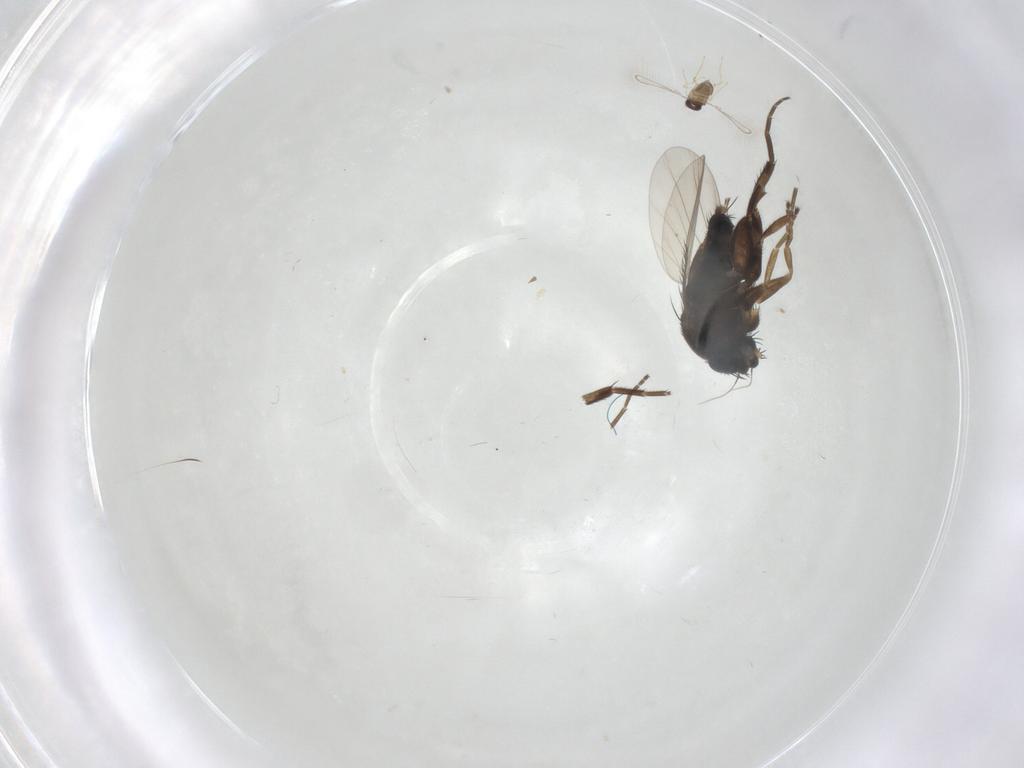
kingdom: Animalia
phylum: Arthropoda
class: Insecta
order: Diptera
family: Phoridae
